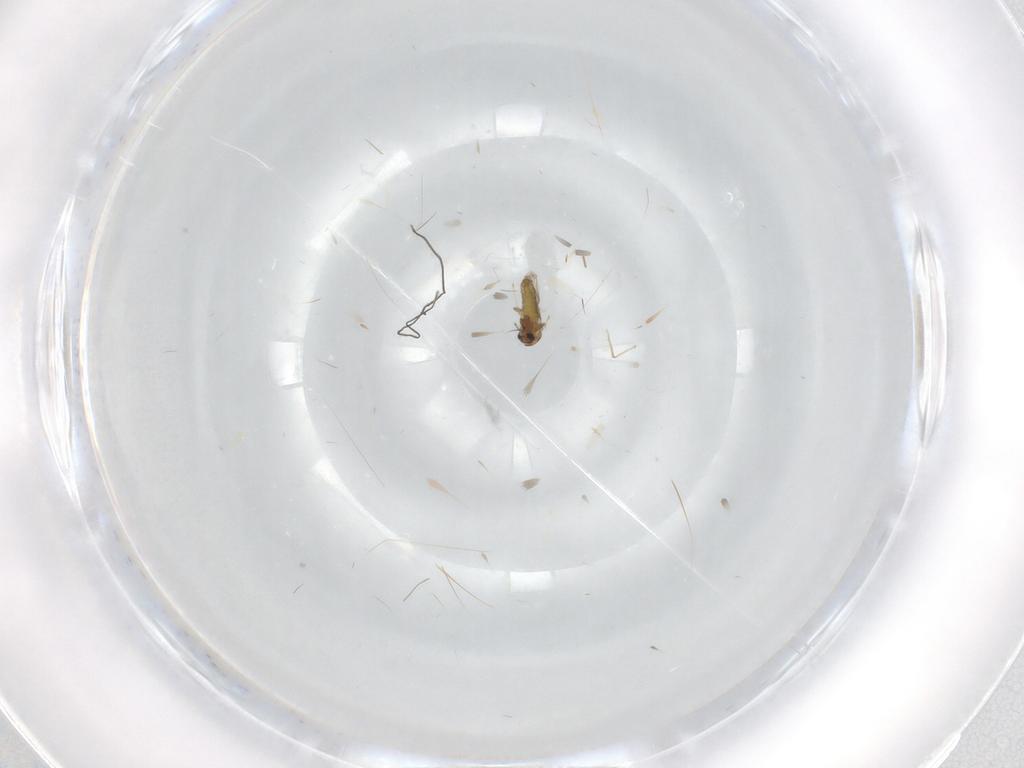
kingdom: Animalia
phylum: Arthropoda
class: Insecta
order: Diptera
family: Chironomidae
